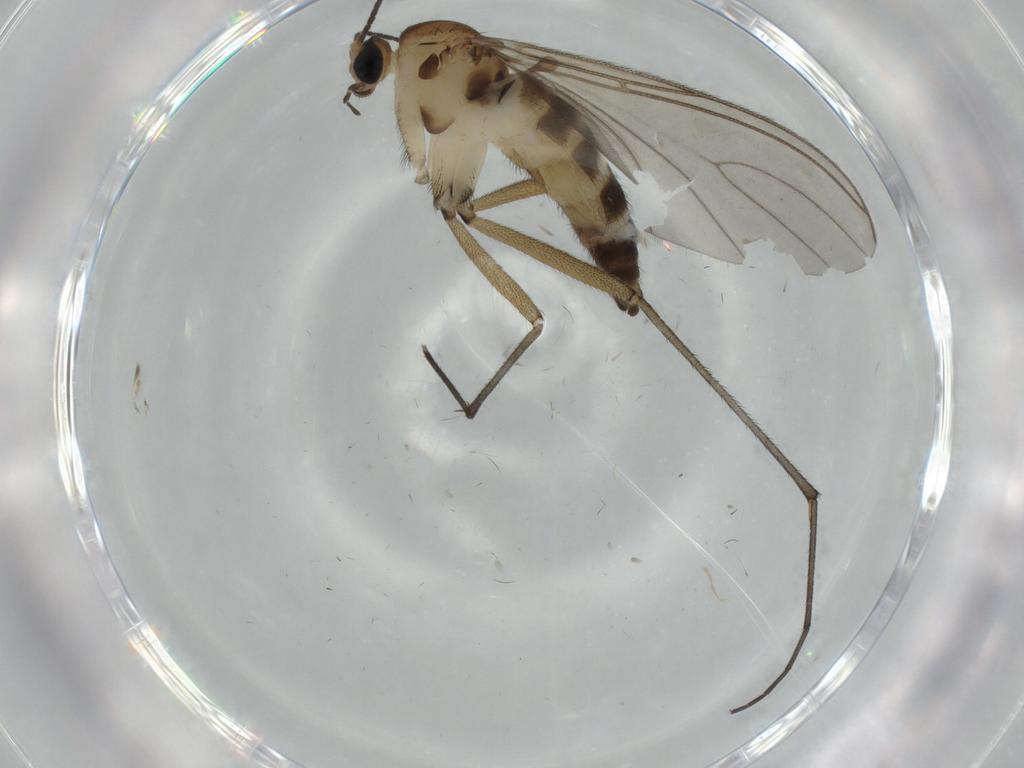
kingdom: Animalia
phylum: Arthropoda
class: Insecta
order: Diptera
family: Sciaridae
